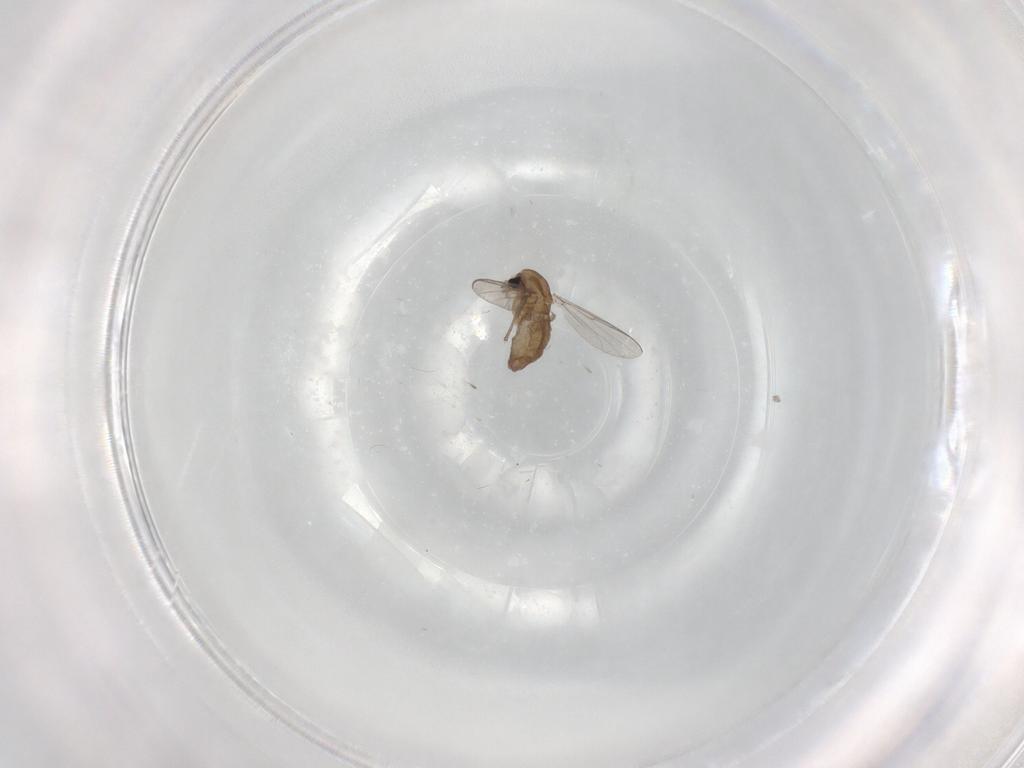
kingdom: Animalia
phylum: Arthropoda
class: Insecta
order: Diptera
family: Chironomidae
